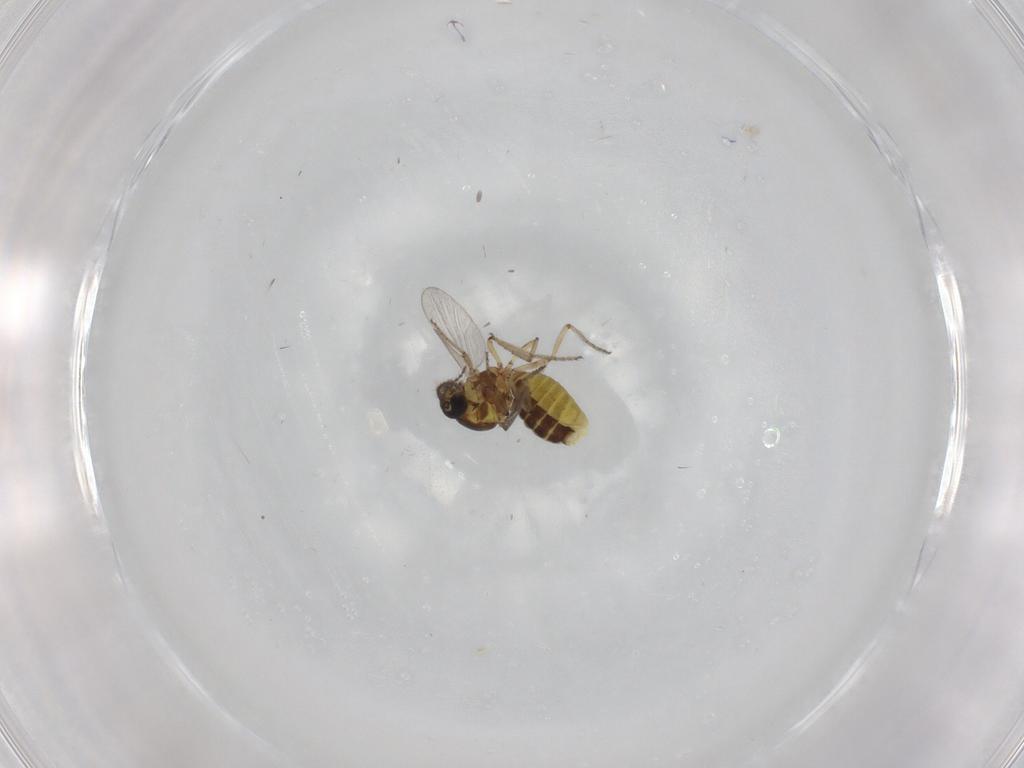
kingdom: Animalia
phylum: Arthropoda
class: Insecta
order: Diptera
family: Ceratopogonidae
